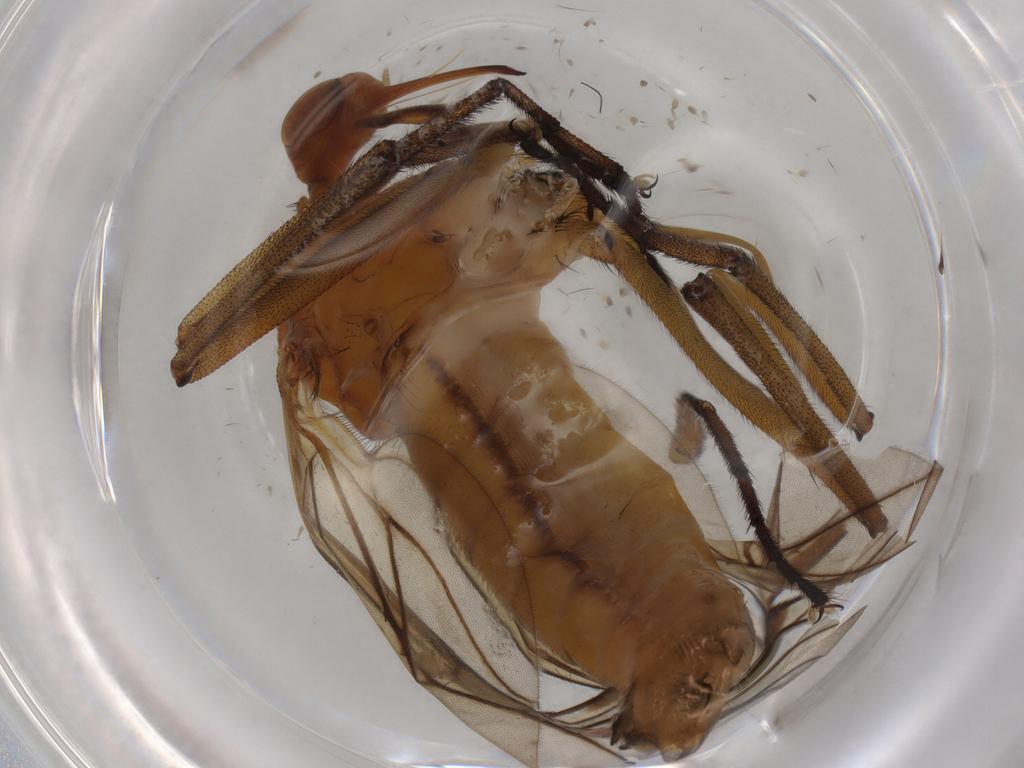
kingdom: Animalia
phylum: Arthropoda
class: Insecta
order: Diptera
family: Empididae
